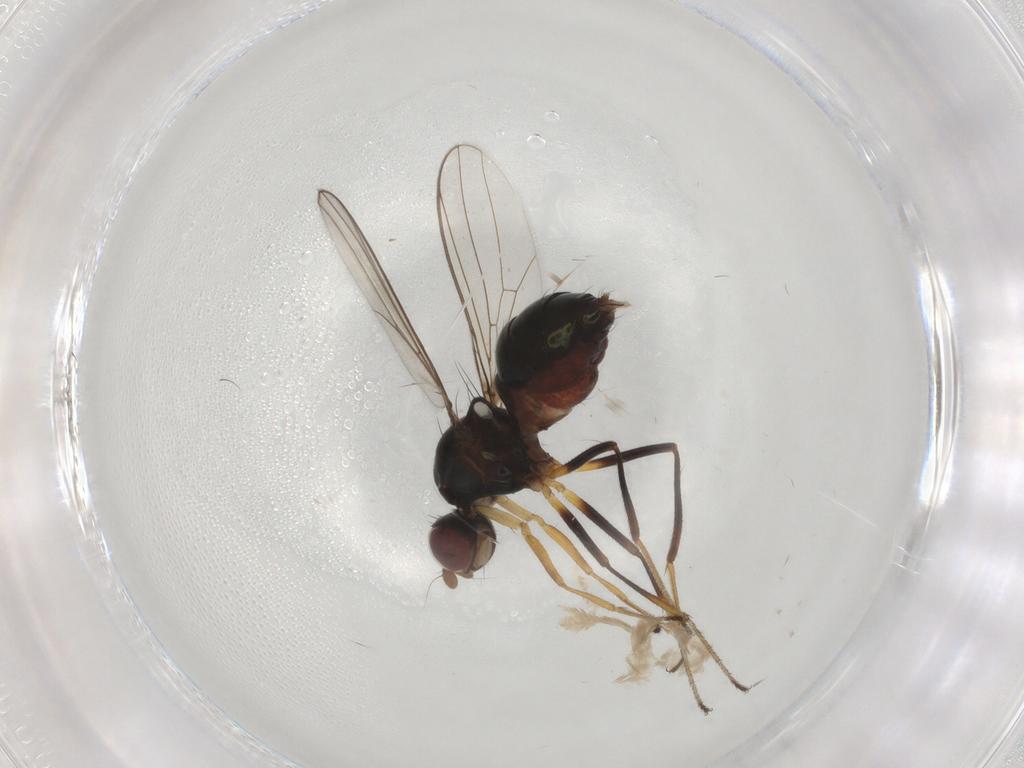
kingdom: Animalia
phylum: Arthropoda
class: Insecta
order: Diptera
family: Sepsidae
